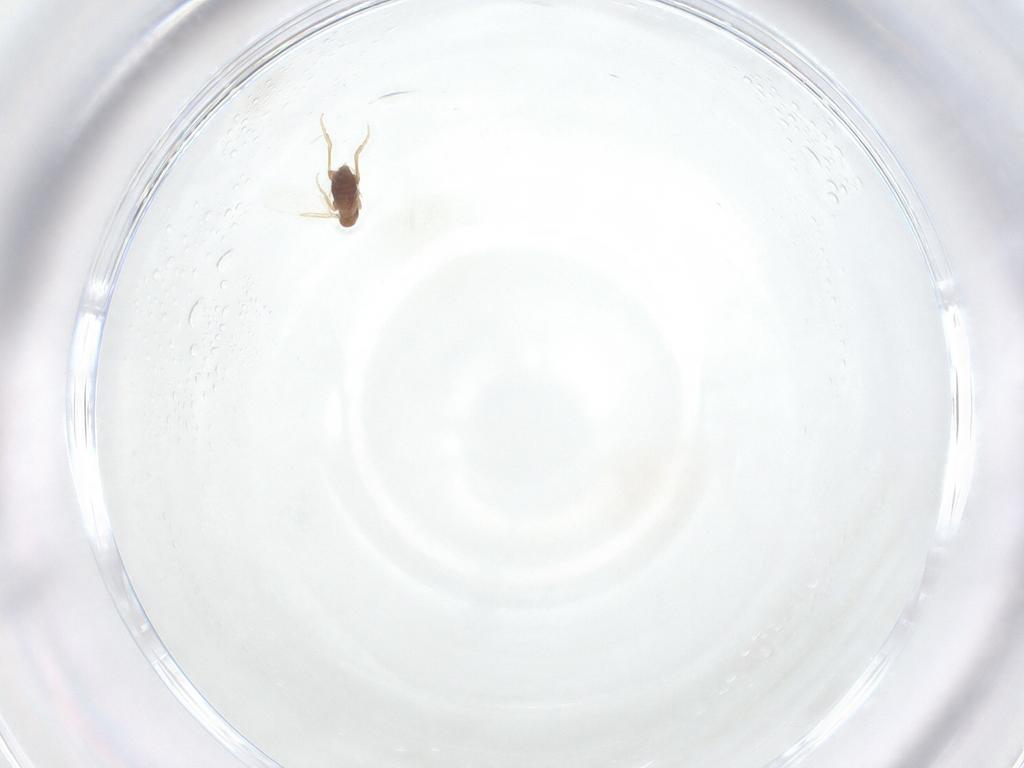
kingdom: Animalia
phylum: Arthropoda
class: Insecta
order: Diptera
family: Phoridae
